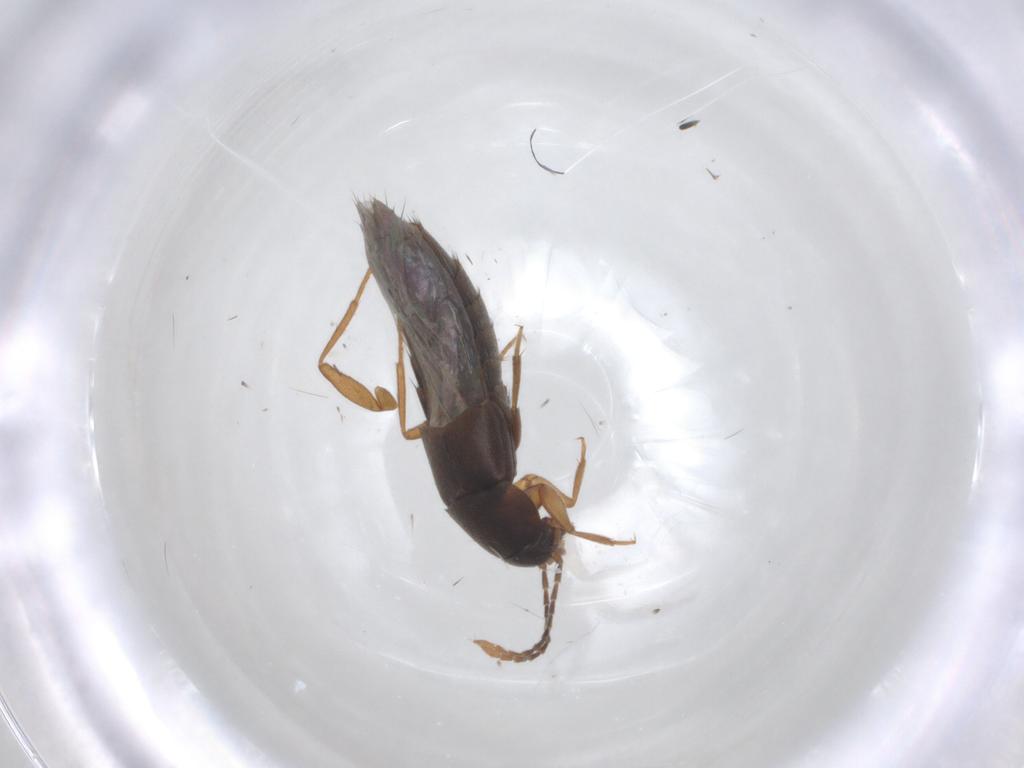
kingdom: Animalia
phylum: Arthropoda
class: Insecta
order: Coleoptera
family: Staphylinidae
